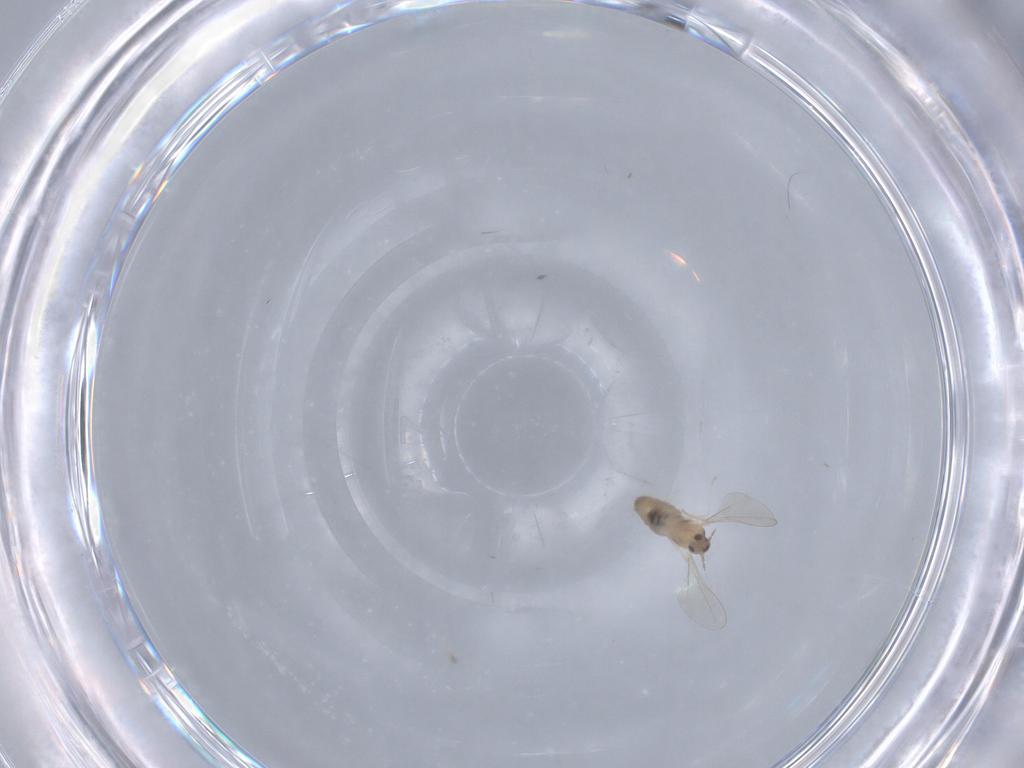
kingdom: Animalia
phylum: Arthropoda
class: Insecta
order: Diptera
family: Cecidomyiidae
